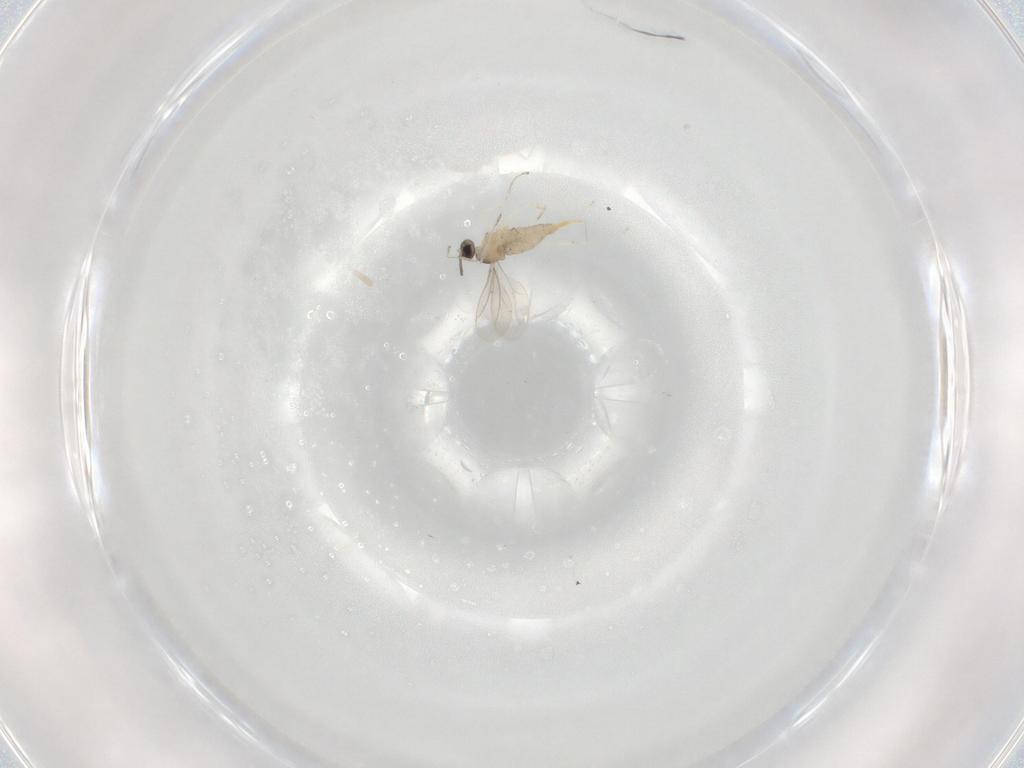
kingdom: Animalia
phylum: Arthropoda
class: Insecta
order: Diptera
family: Cecidomyiidae
